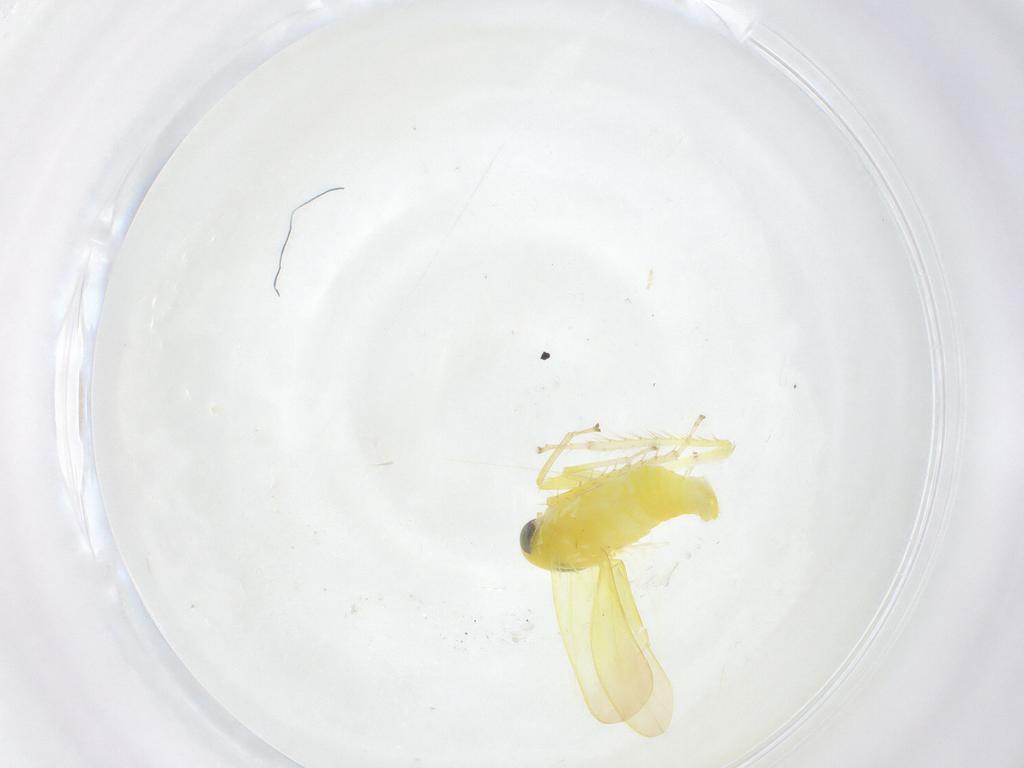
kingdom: Animalia
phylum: Arthropoda
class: Insecta
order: Hemiptera
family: Cicadellidae
